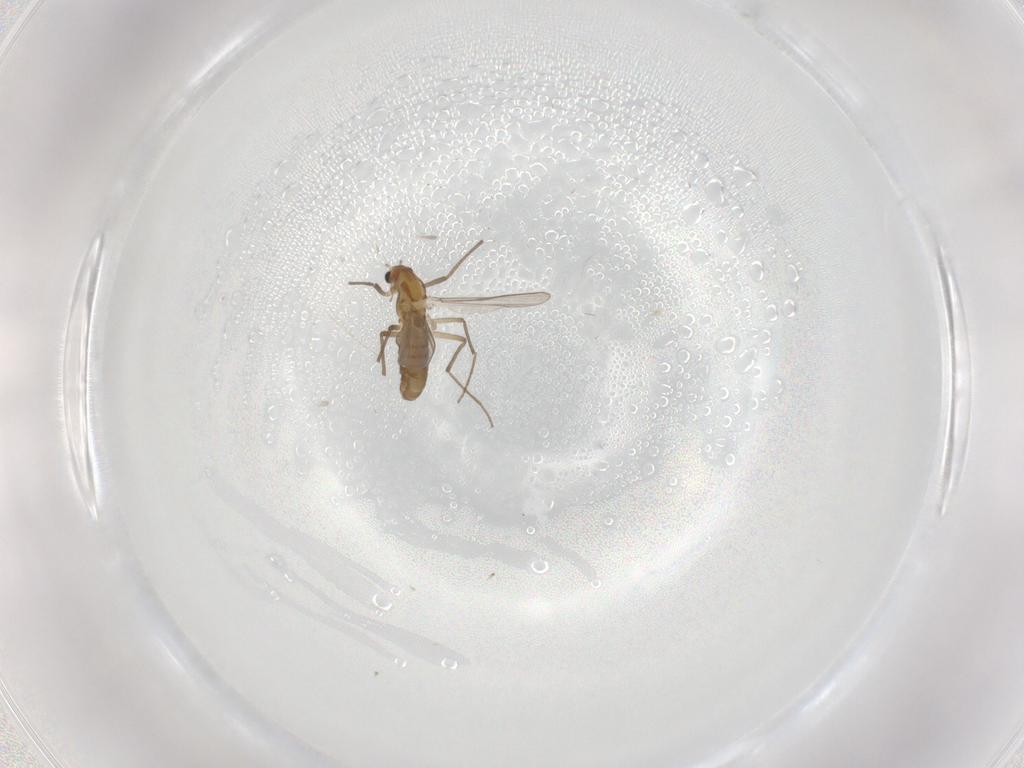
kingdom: Animalia
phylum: Arthropoda
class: Insecta
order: Diptera
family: Chironomidae
